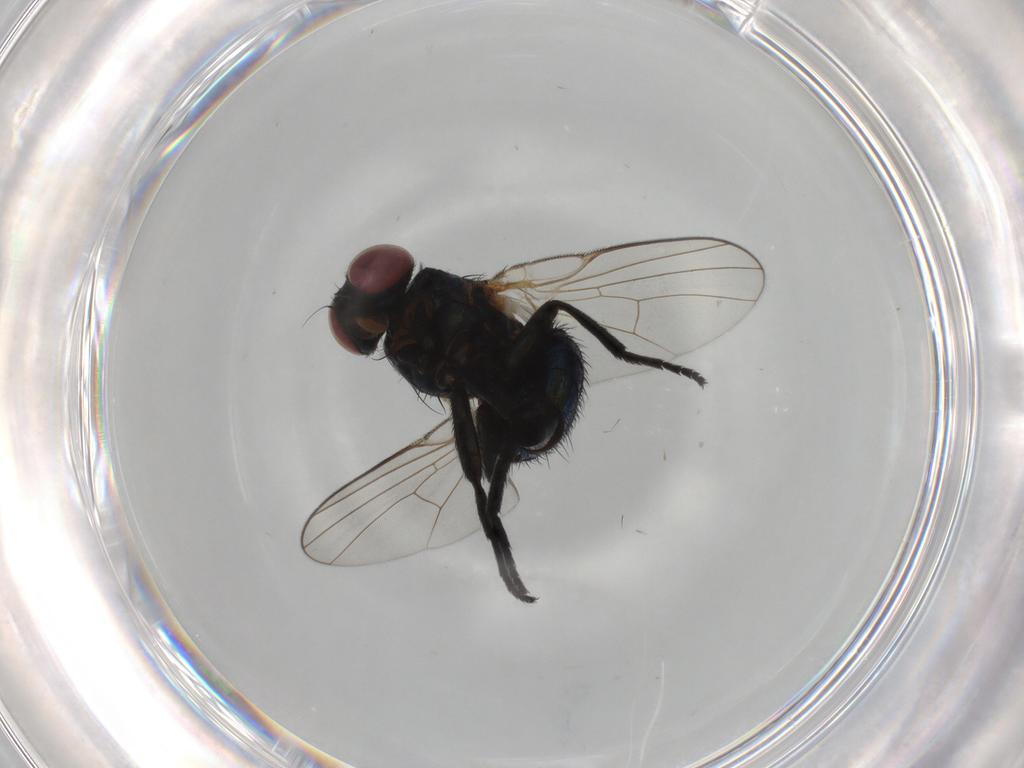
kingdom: Animalia
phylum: Arthropoda
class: Insecta
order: Diptera
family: Agromyzidae
